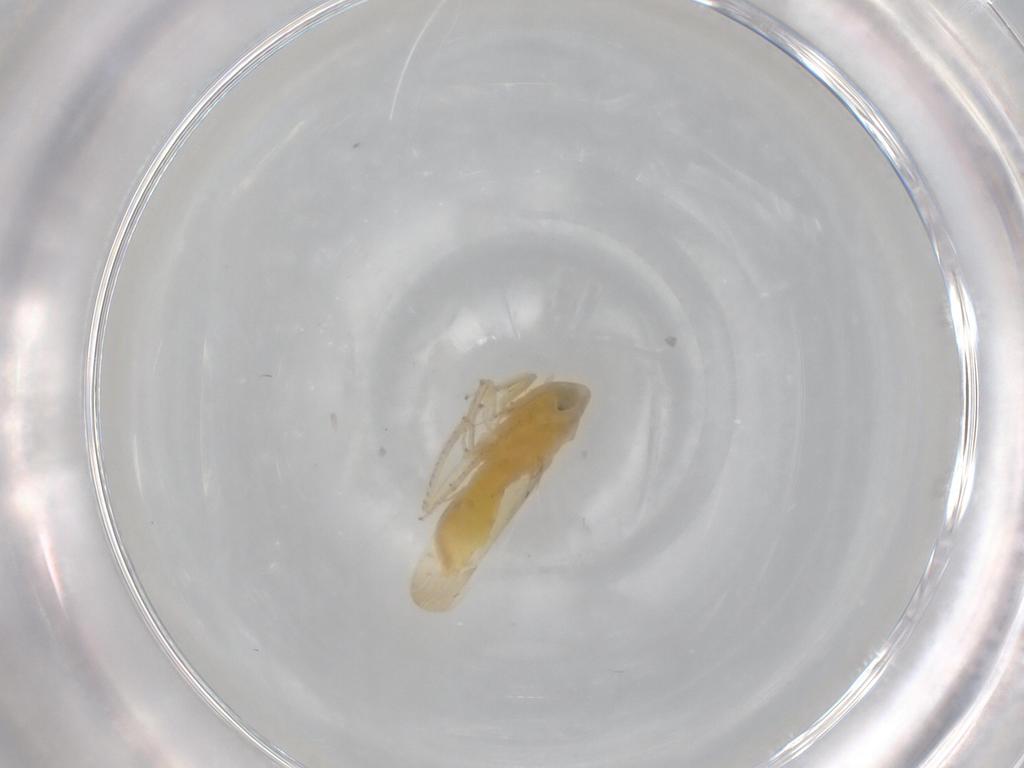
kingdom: Animalia
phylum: Arthropoda
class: Insecta
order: Hemiptera
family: Cicadellidae
